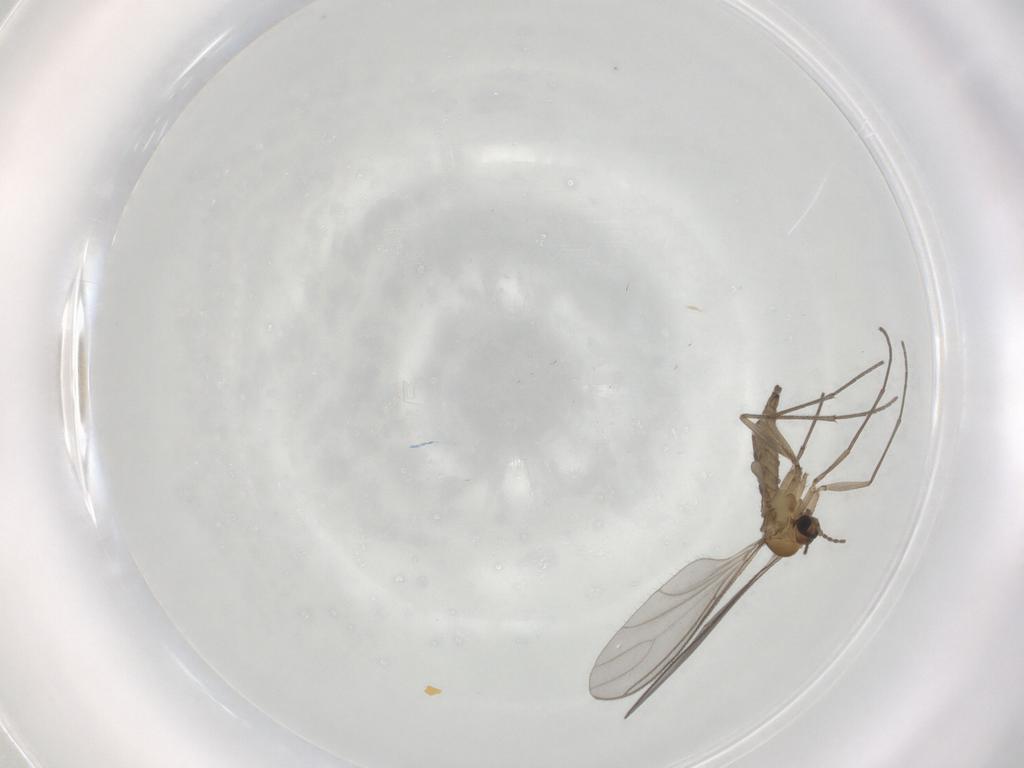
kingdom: Animalia
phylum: Arthropoda
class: Insecta
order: Diptera
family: Sciaridae
